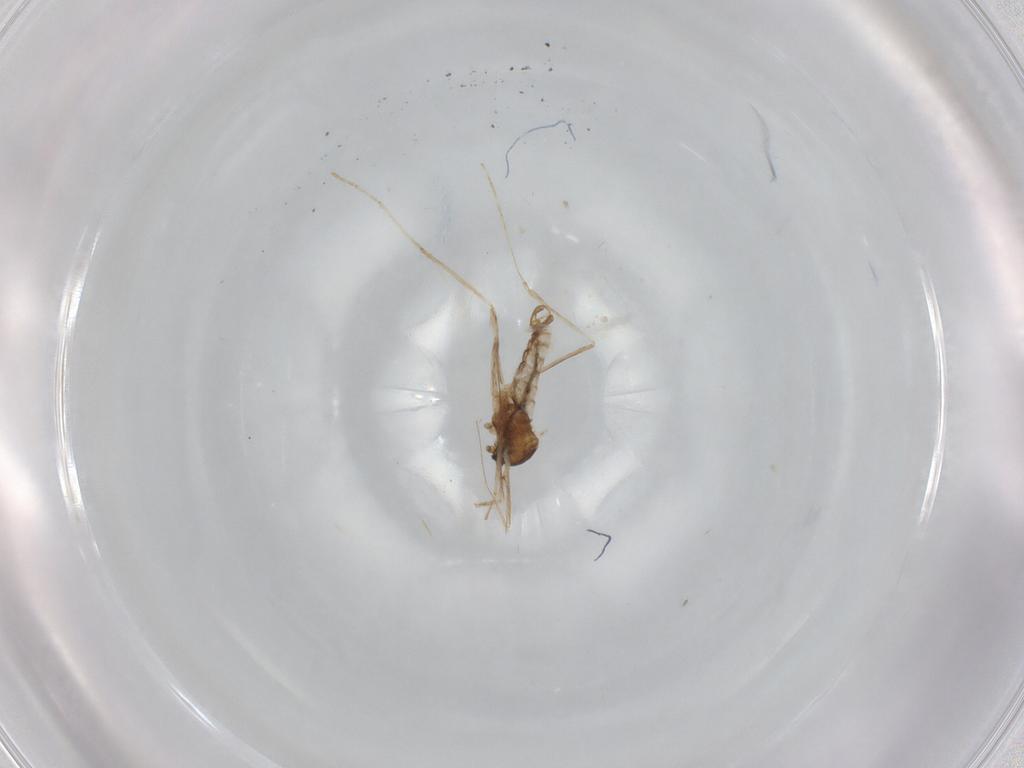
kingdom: Animalia
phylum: Arthropoda
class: Insecta
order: Diptera
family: Cecidomyiidae
